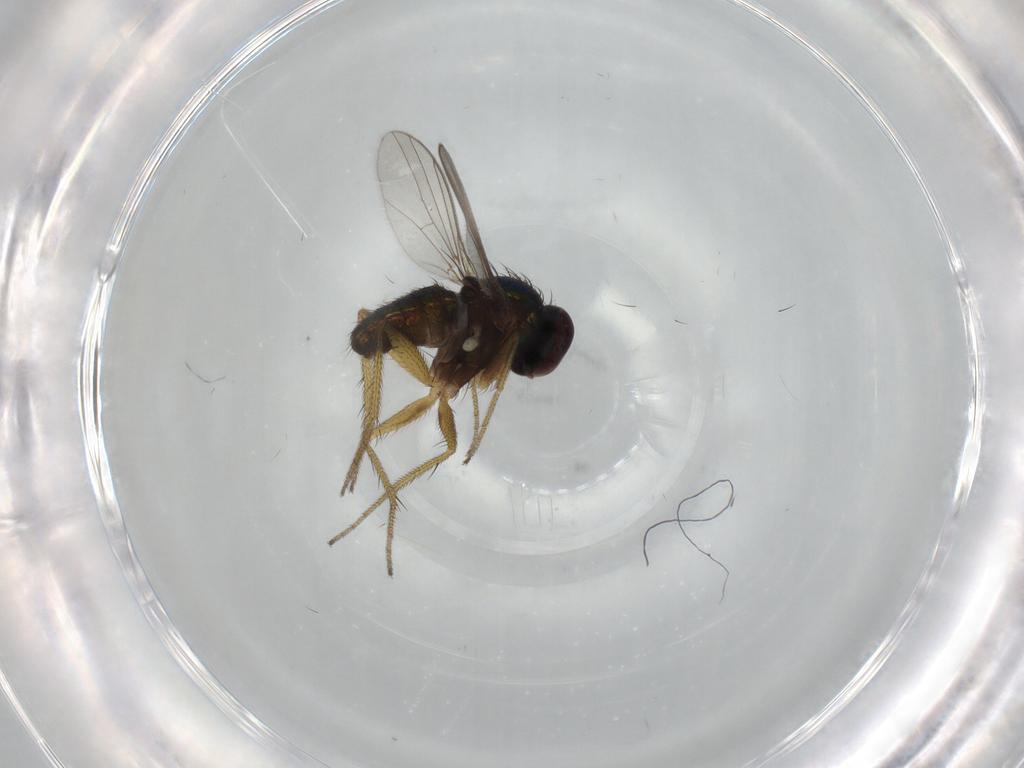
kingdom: Animalia
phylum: Arthropoda
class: Insecta
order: Diptera
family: Dolichopodidae
